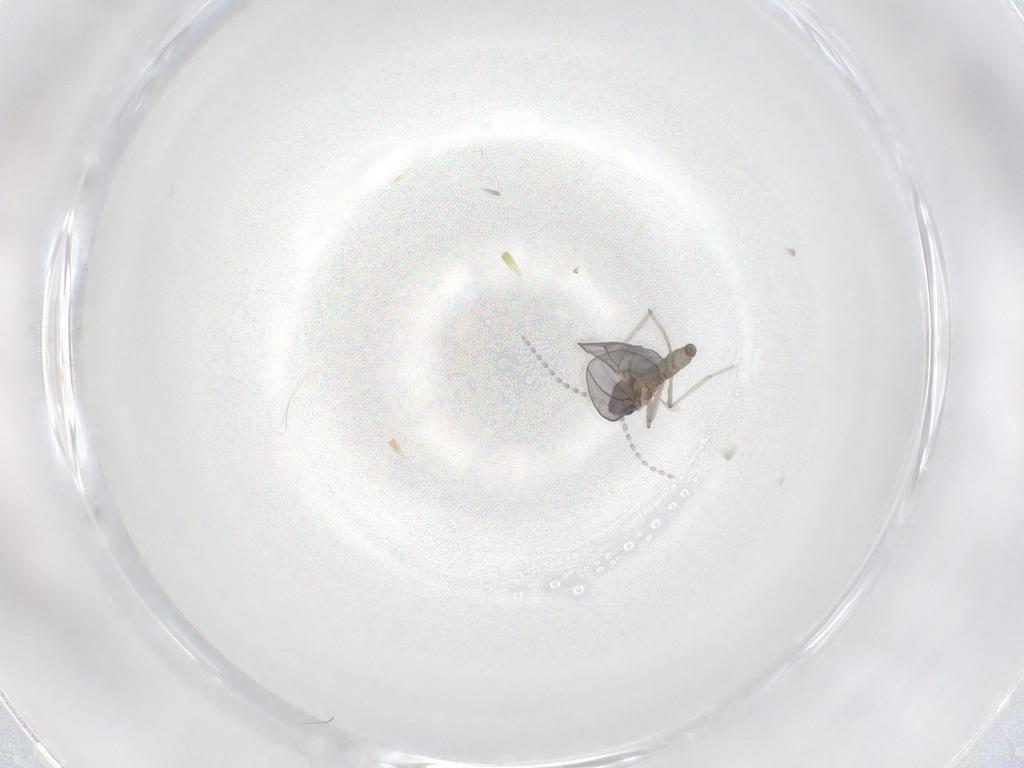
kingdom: Animalia
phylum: Arthropoda
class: Insecta
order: Diptera
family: Cecidomyiidae
